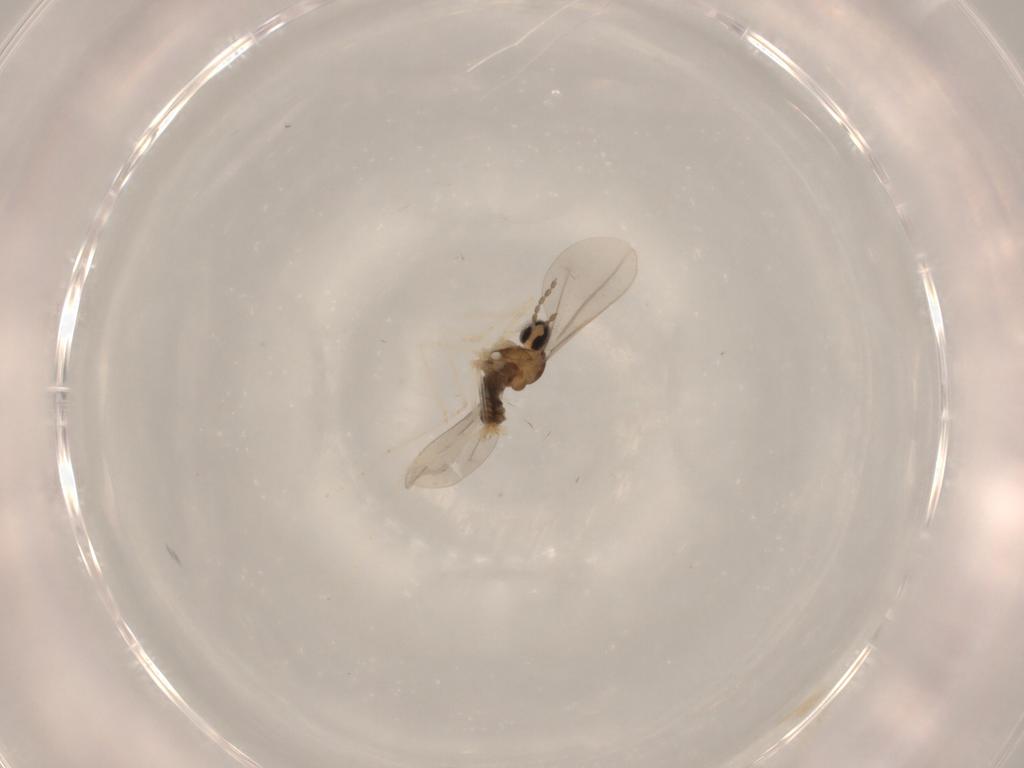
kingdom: Animalia
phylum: Arthropoda
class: Insecta
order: Diptera
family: Cecidomyiidae
